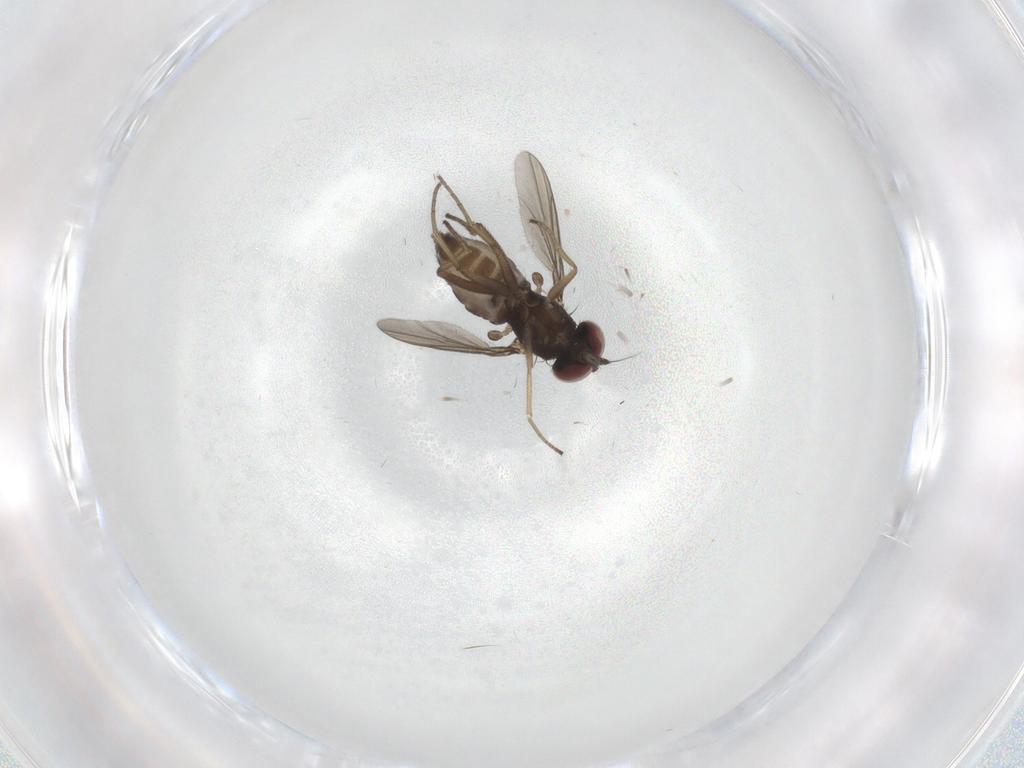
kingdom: Animalia
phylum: Arthropoda
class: Insecta
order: Diptera
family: Dolichopodidae
